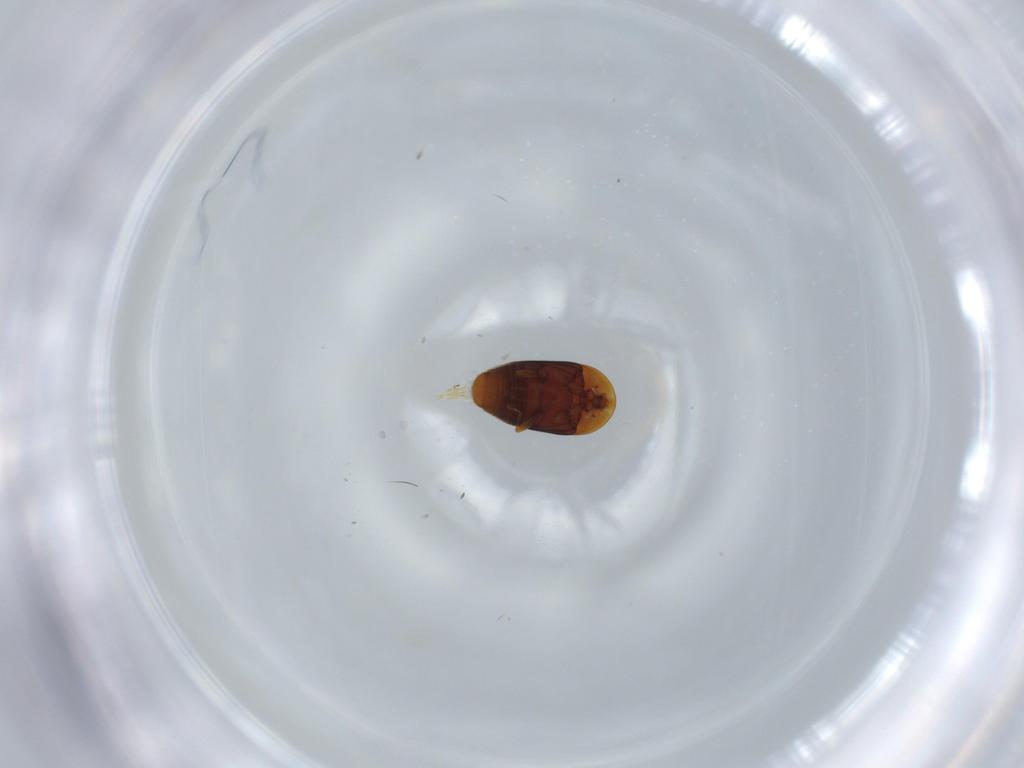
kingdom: Animalia
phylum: Arthropoda
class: Insecta
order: Coleoptera
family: Corylophidae
